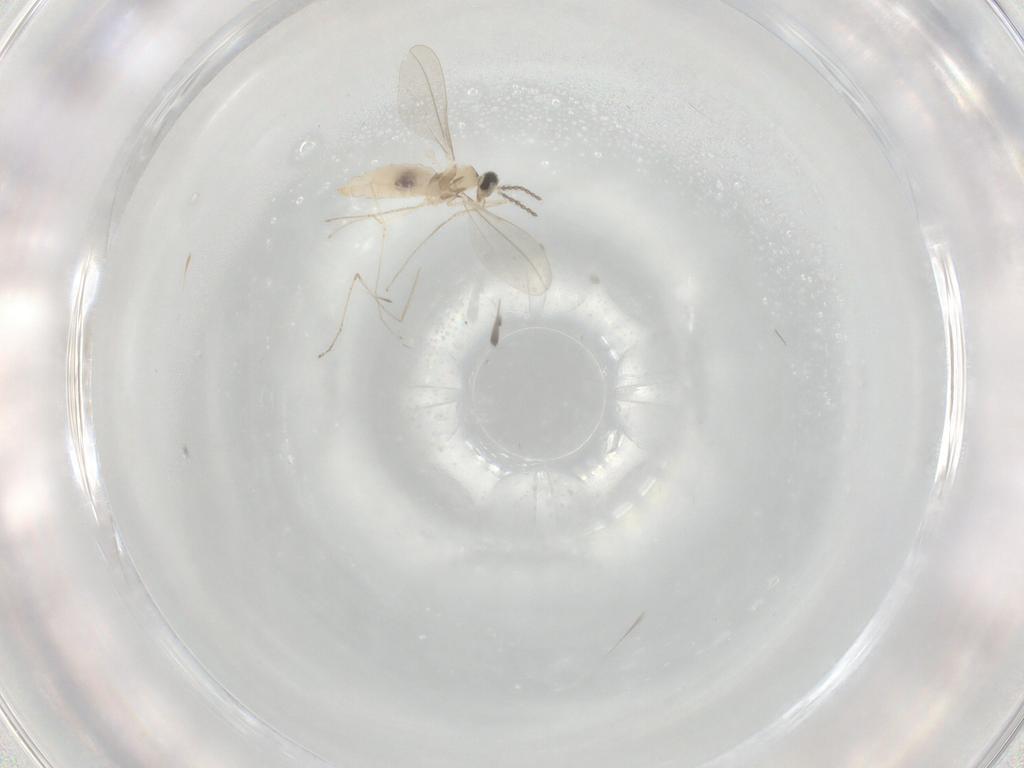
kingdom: Animalia
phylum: Arthropoda
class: Insecta
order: Diptera
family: Cecidomyiidae
